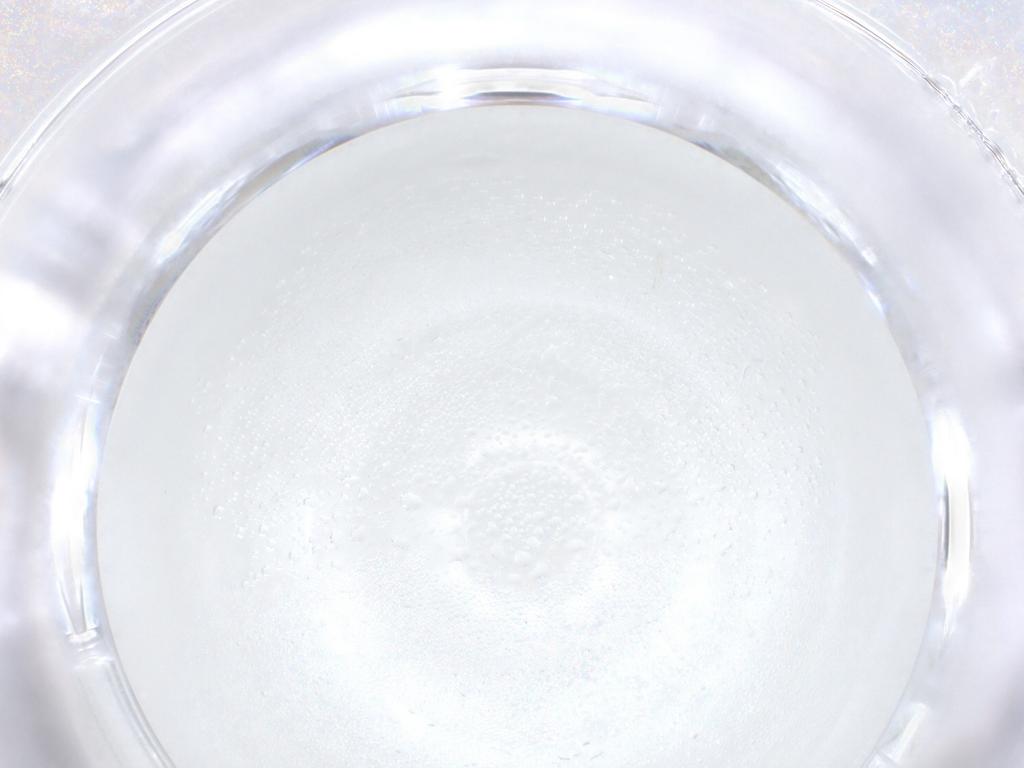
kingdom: Animalia
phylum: Arthropoda
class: Insecta
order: Hymenoptera
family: Aphelinidae
